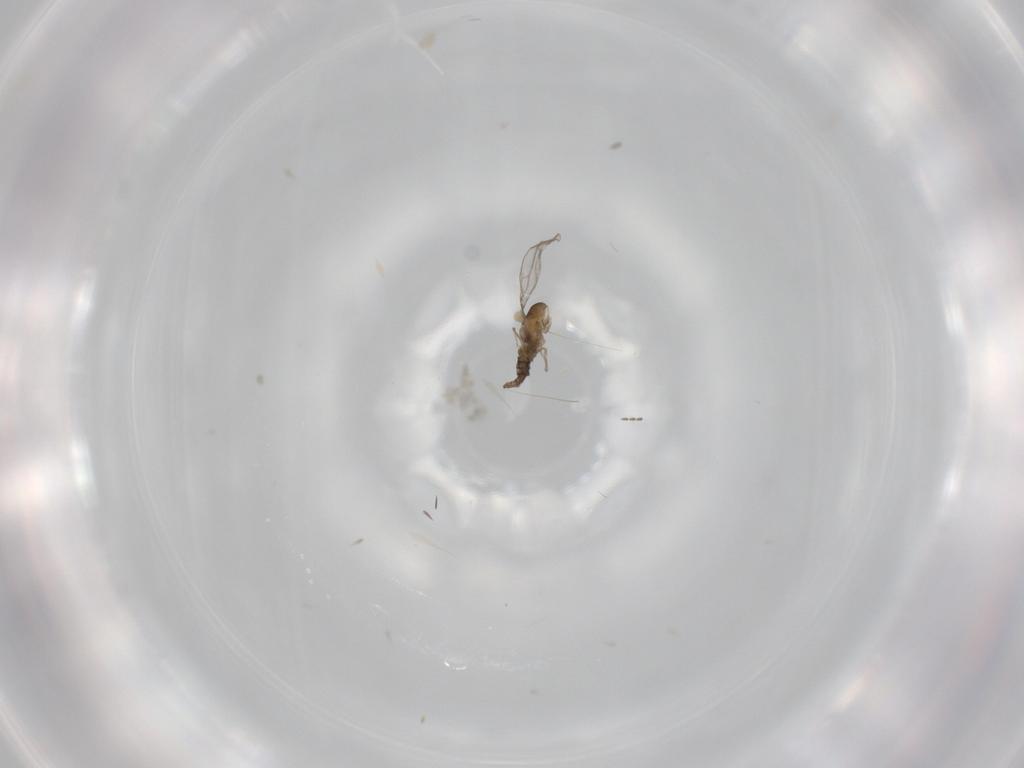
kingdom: Animalia
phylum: Arthropoda
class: Insecta
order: Diptera
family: Cecidomyiidae
